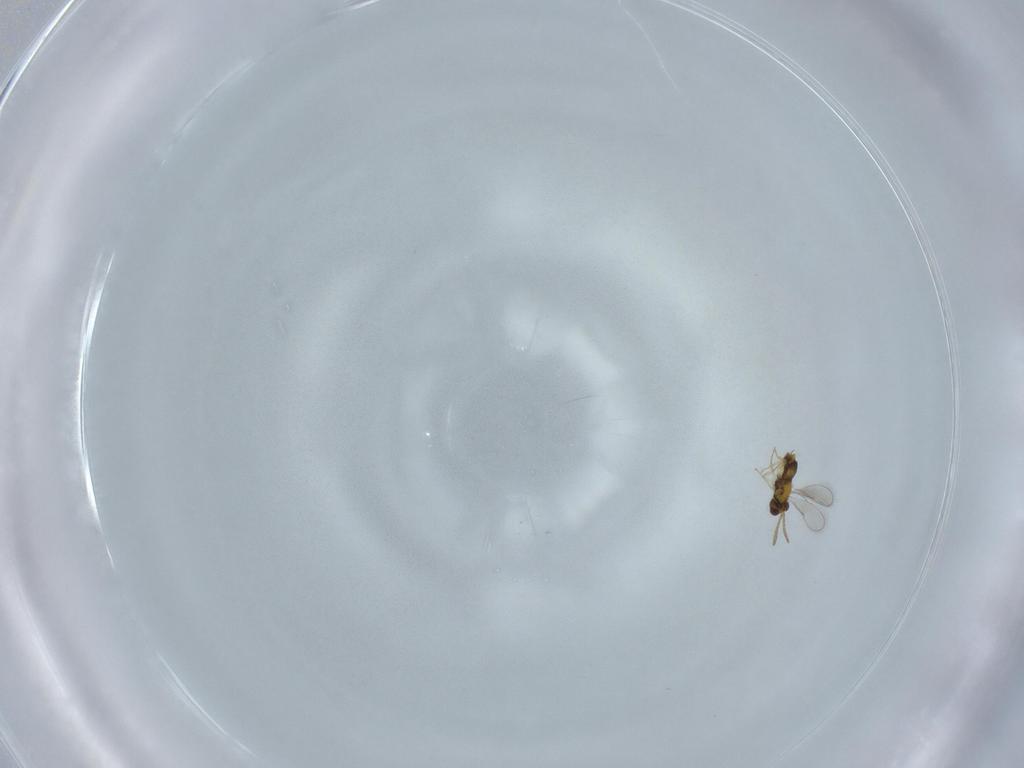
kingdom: Animalia
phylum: Arthropoda
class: Insecta
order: Hymenoptera
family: Aphelinidae
